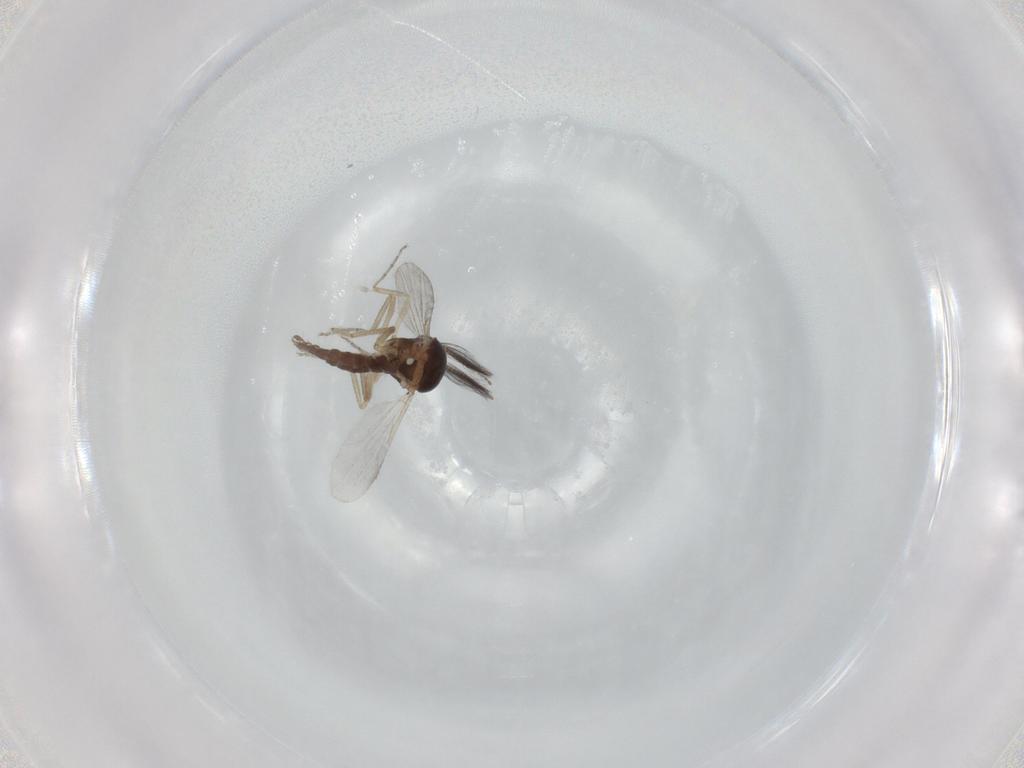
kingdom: Animalia
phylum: Arthropoda
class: Insecta
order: Diptera
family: Ceratopogonidae
